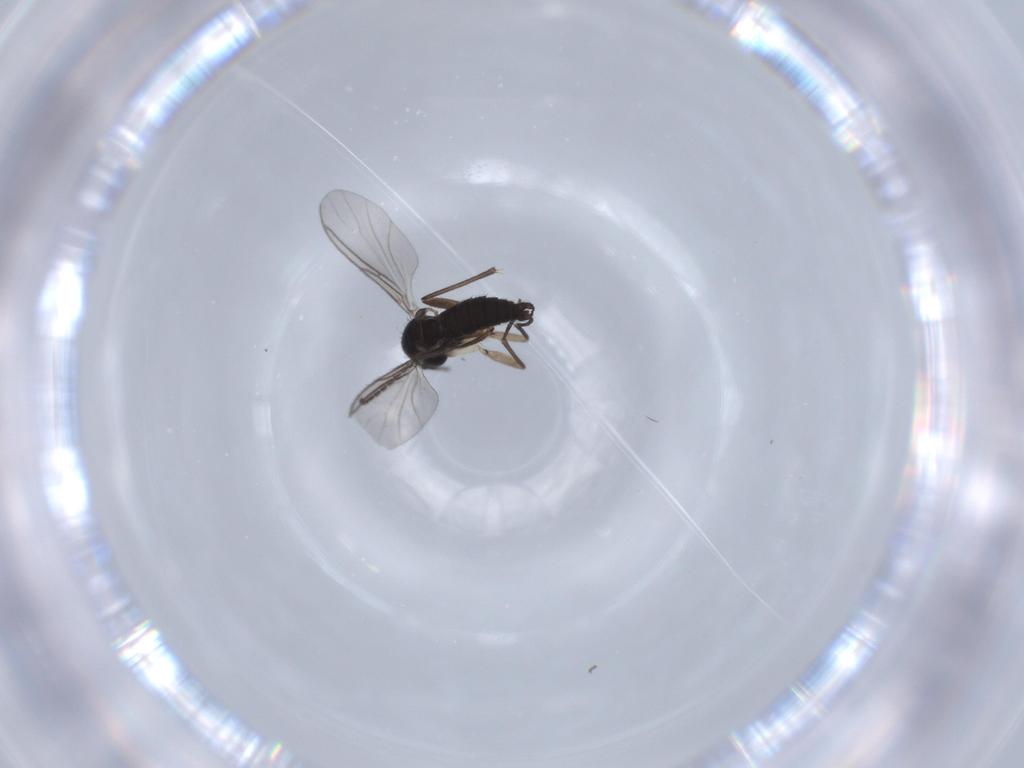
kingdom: Animalia
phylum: Arthropoda
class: Insecta
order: Diptera
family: Sciaridae
